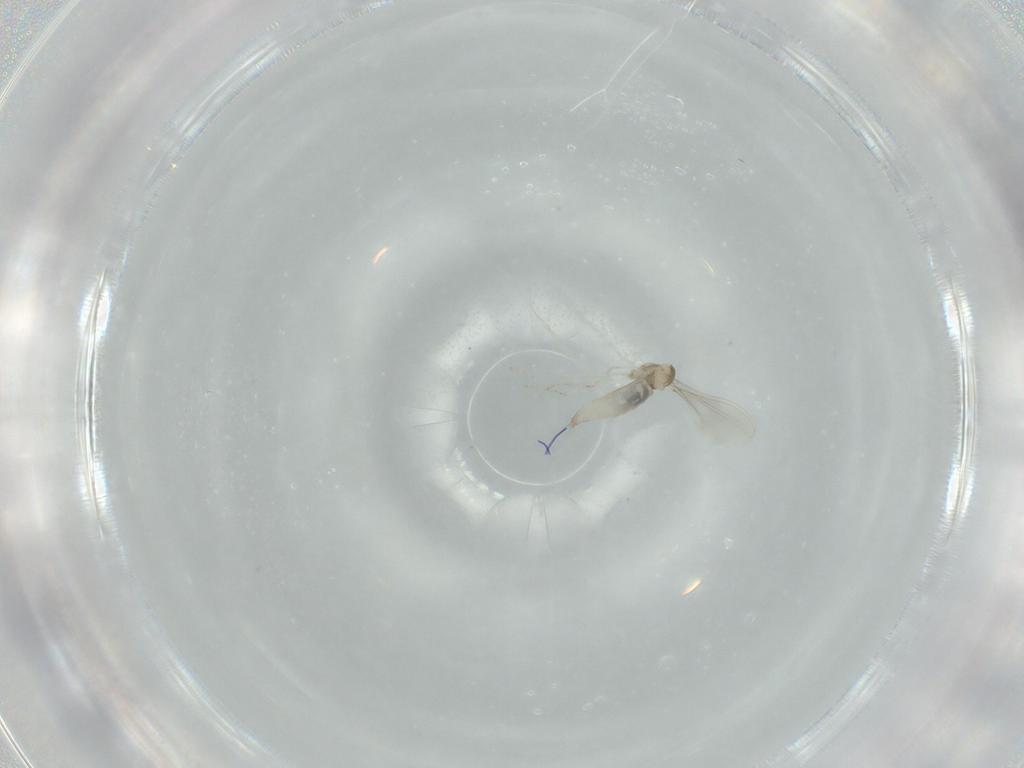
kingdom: Animalia
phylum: Arthropoda
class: Insecta
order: Diptera
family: Cecidomyiidae
